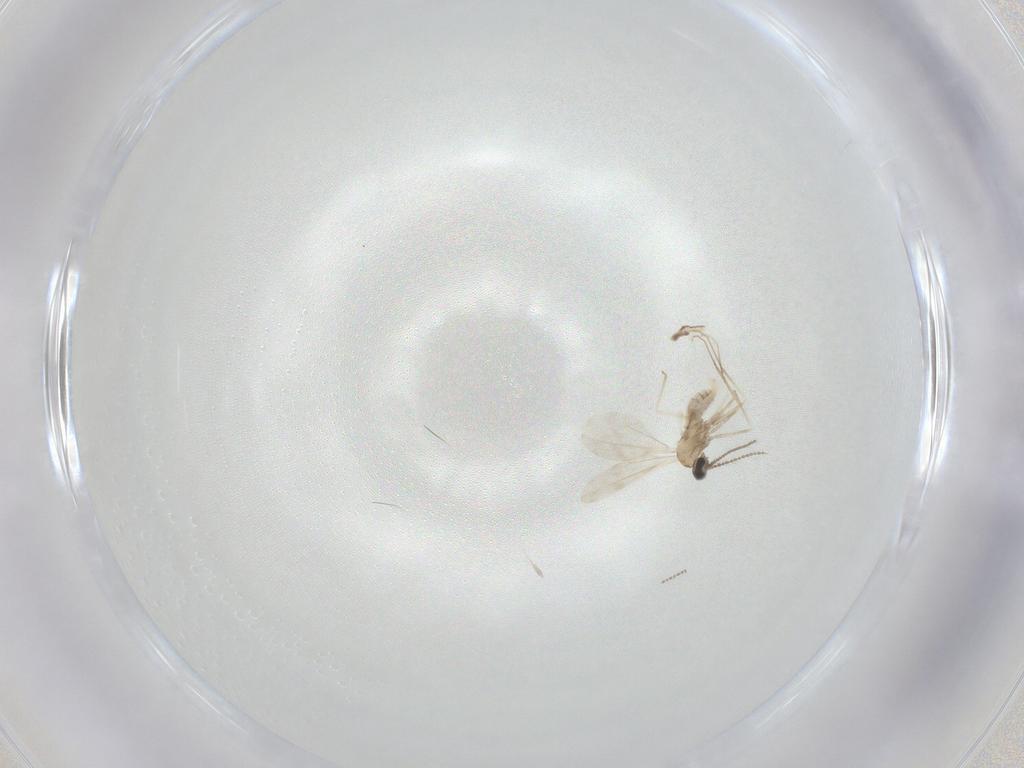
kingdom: Animalia
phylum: Arthropoda
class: Insecta
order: Diptera
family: Cecidomyiidae
